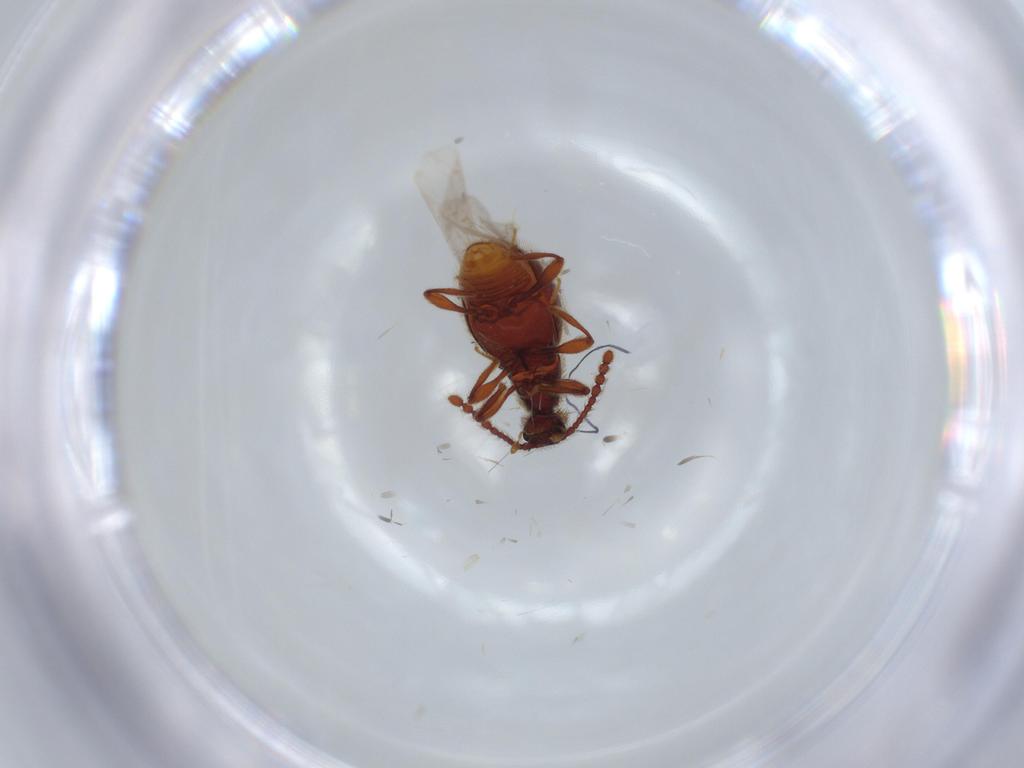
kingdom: Animalia
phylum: Arthropoda
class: Insecta
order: Coleoptera
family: Staphylinidae
